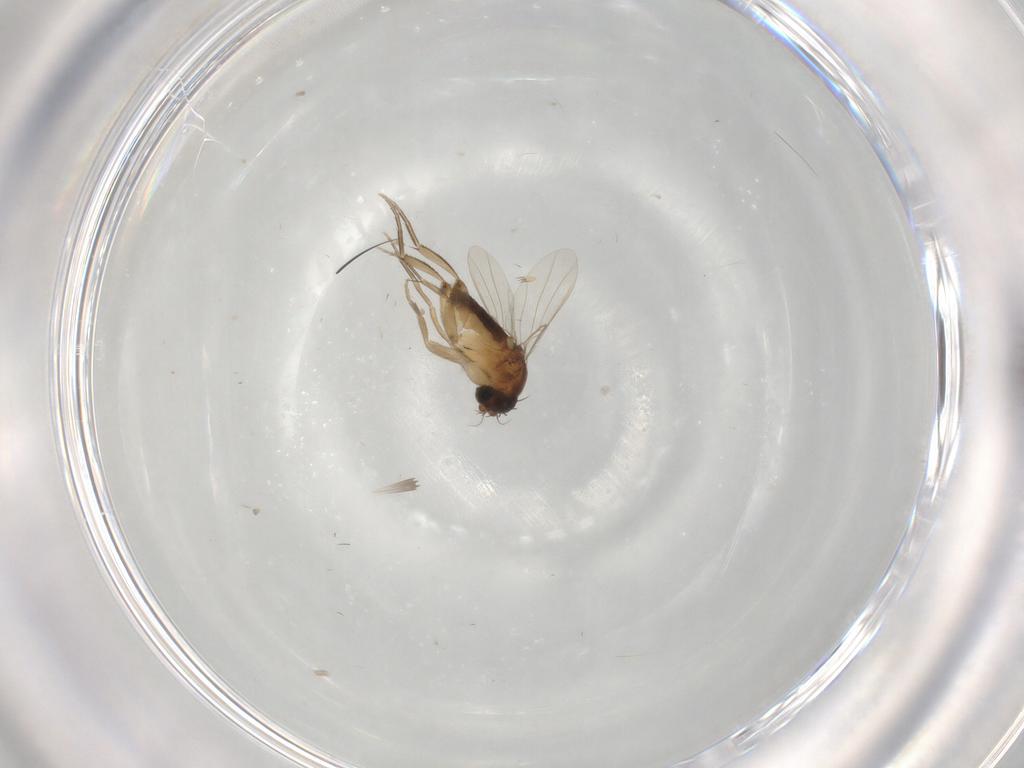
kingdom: Animalia
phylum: Arthropoda
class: Insecta
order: Diptera
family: Phoridae
